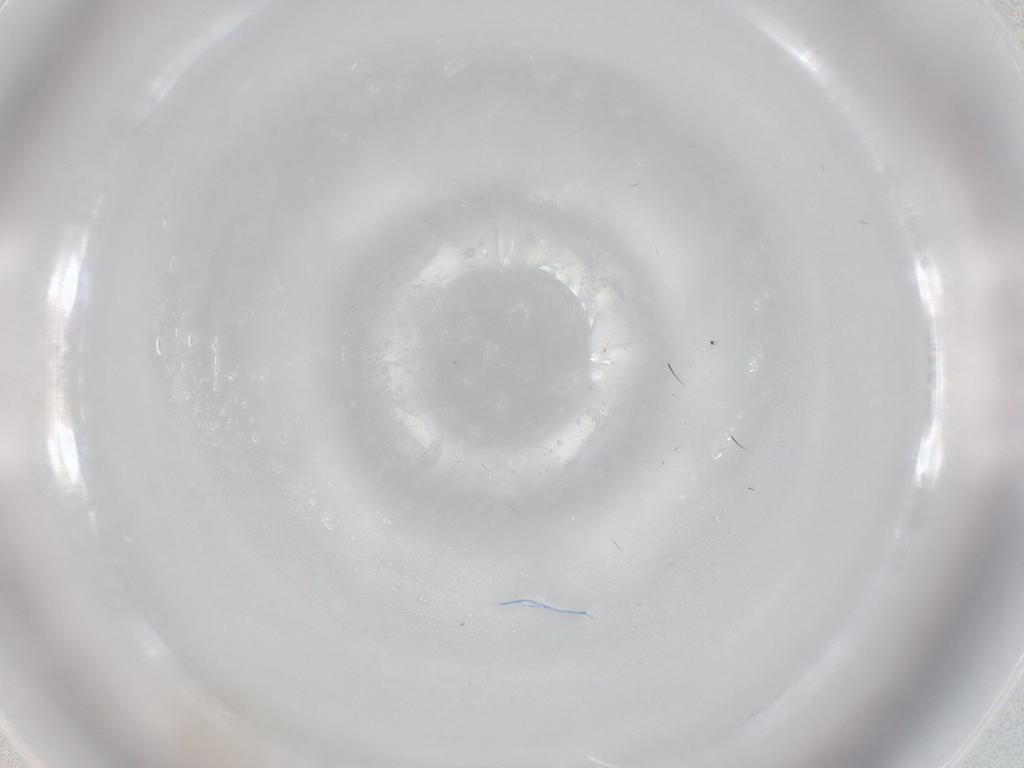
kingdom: Animalia
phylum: Arthropoda
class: Insecta
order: Diptera
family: Chironomidae
